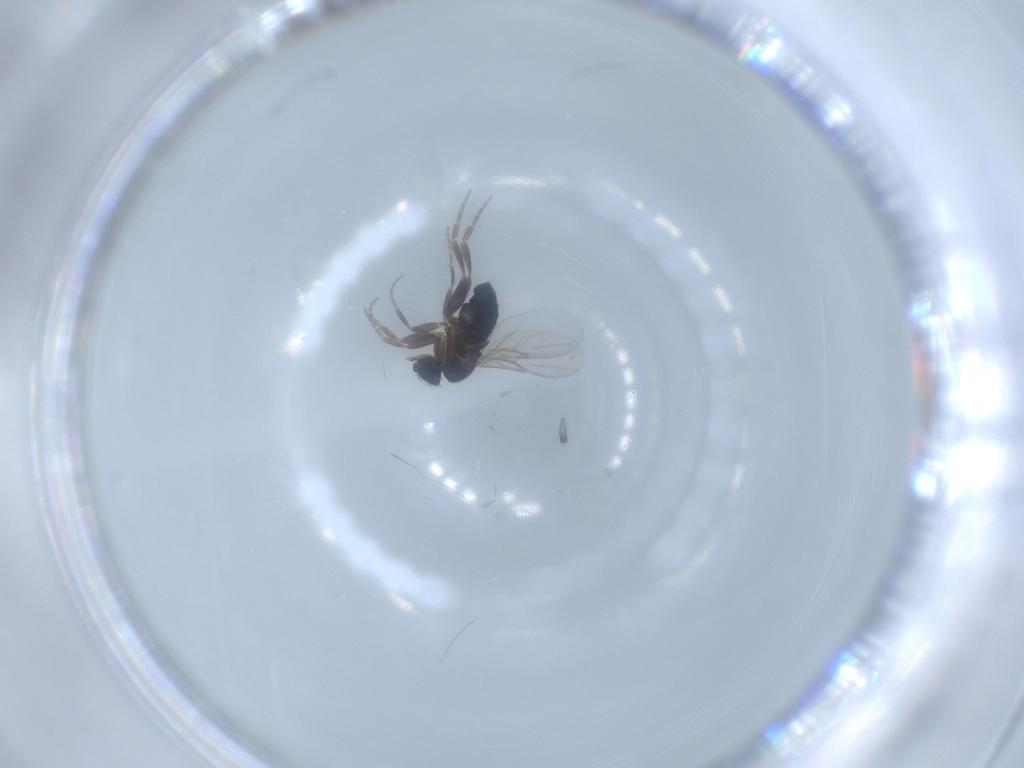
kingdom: Animalia
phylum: Arthropoda
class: Insecta
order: Diptera
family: Phoridae
